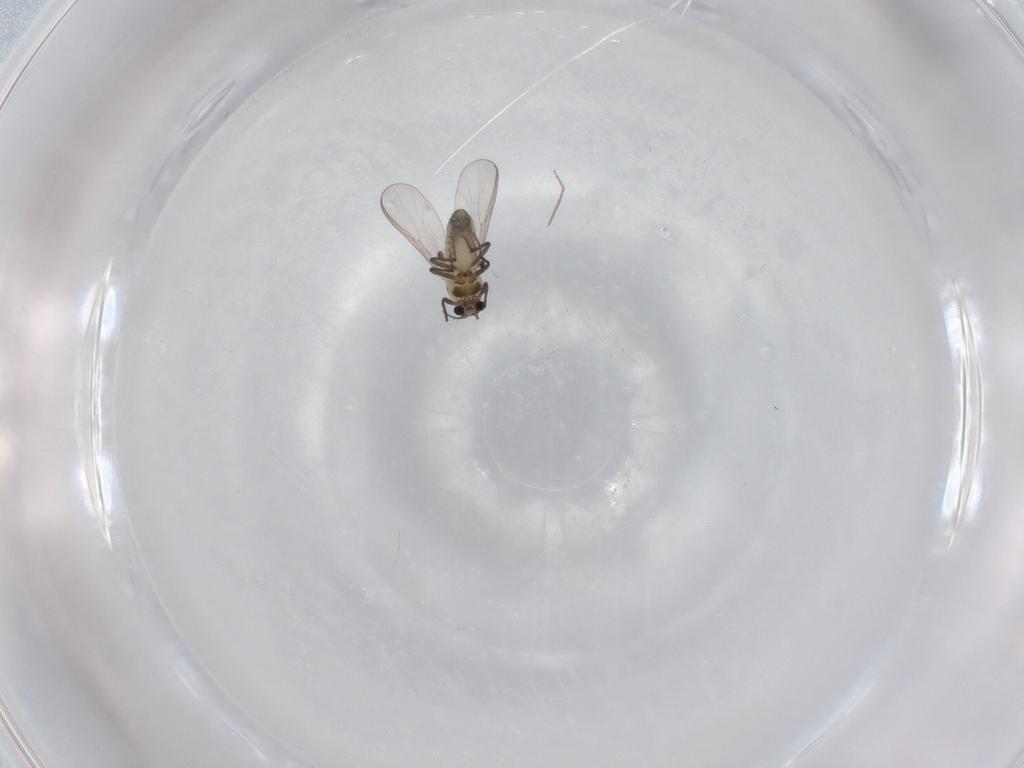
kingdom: Animalia
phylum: Arthropoda
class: Insecta
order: Diptera
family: Chironomidae
